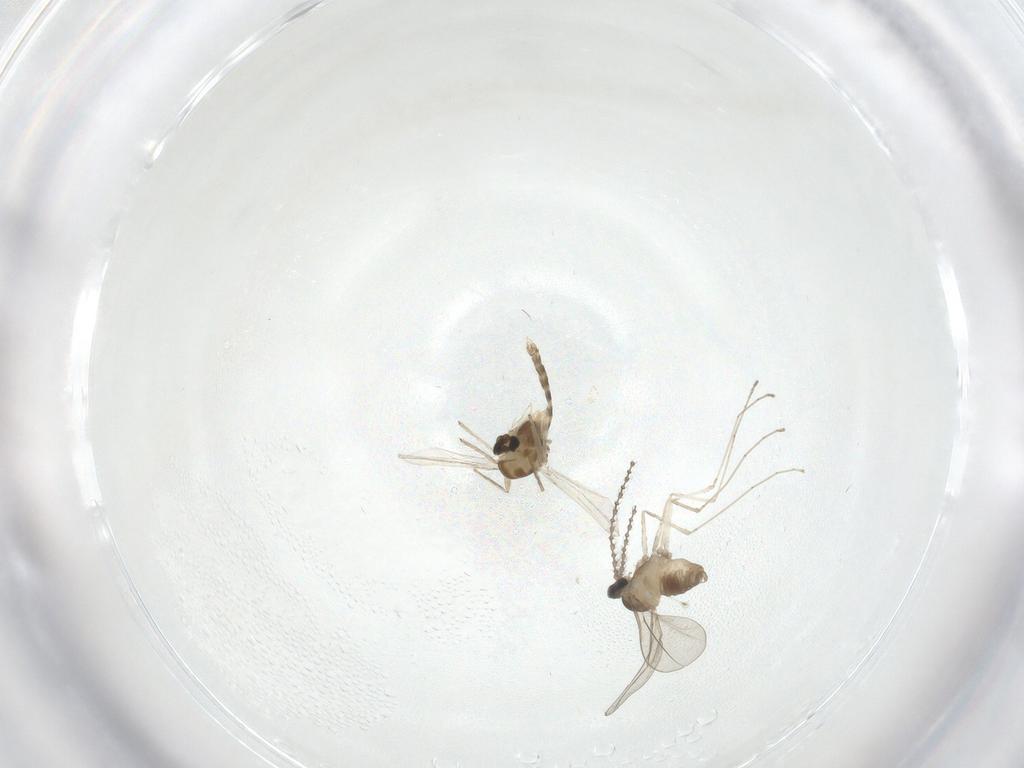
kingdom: Animalia
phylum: Arthropoda
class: Insecta
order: Diptera
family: Cecidomyiidae
